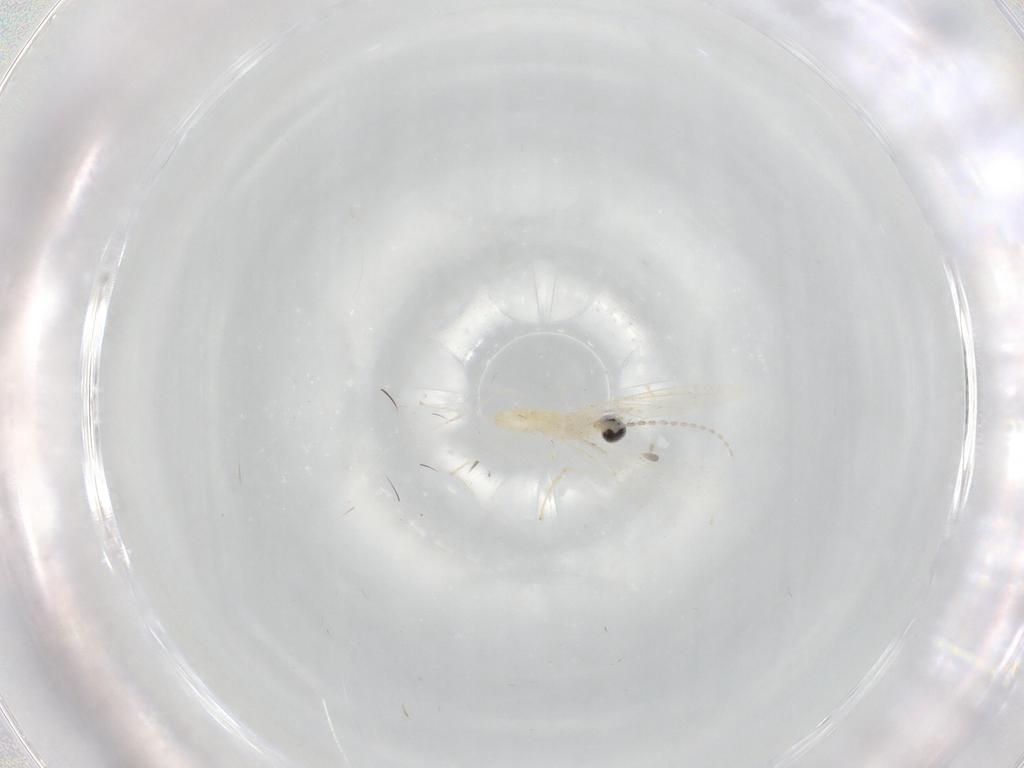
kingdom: Animalia
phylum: Arthropoda
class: Insecta
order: Diptera
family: Cecidomyiidae
